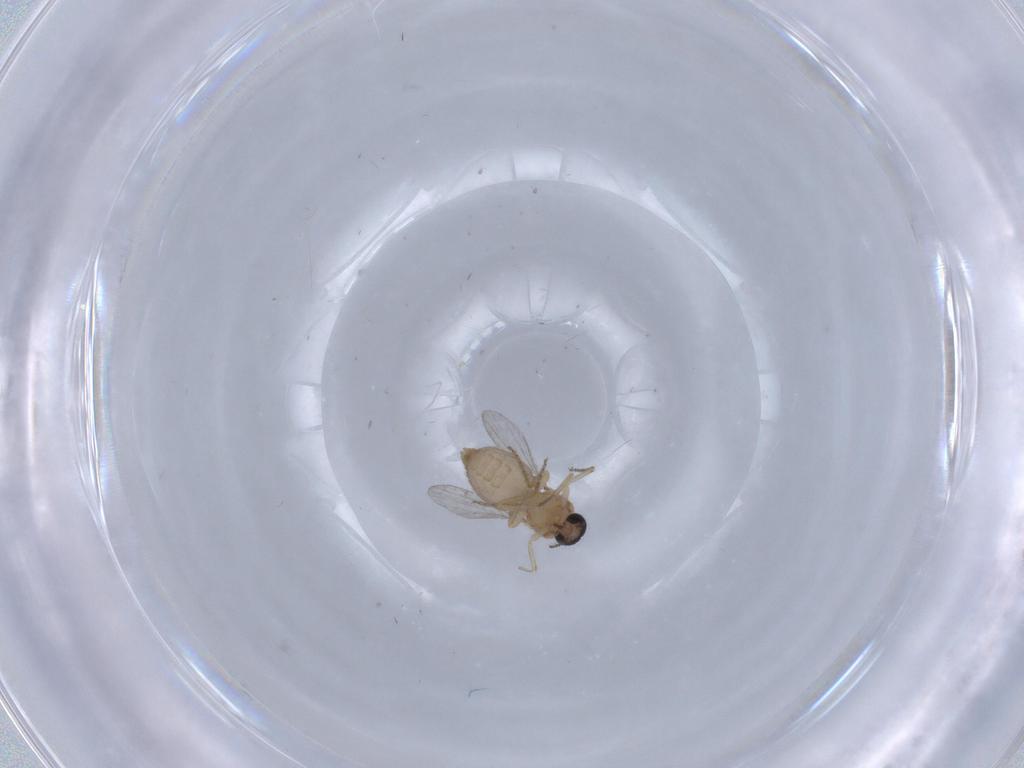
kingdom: Animalia
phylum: Arthropoda
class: Insecta
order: Diptera
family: Ceratopogonidae
